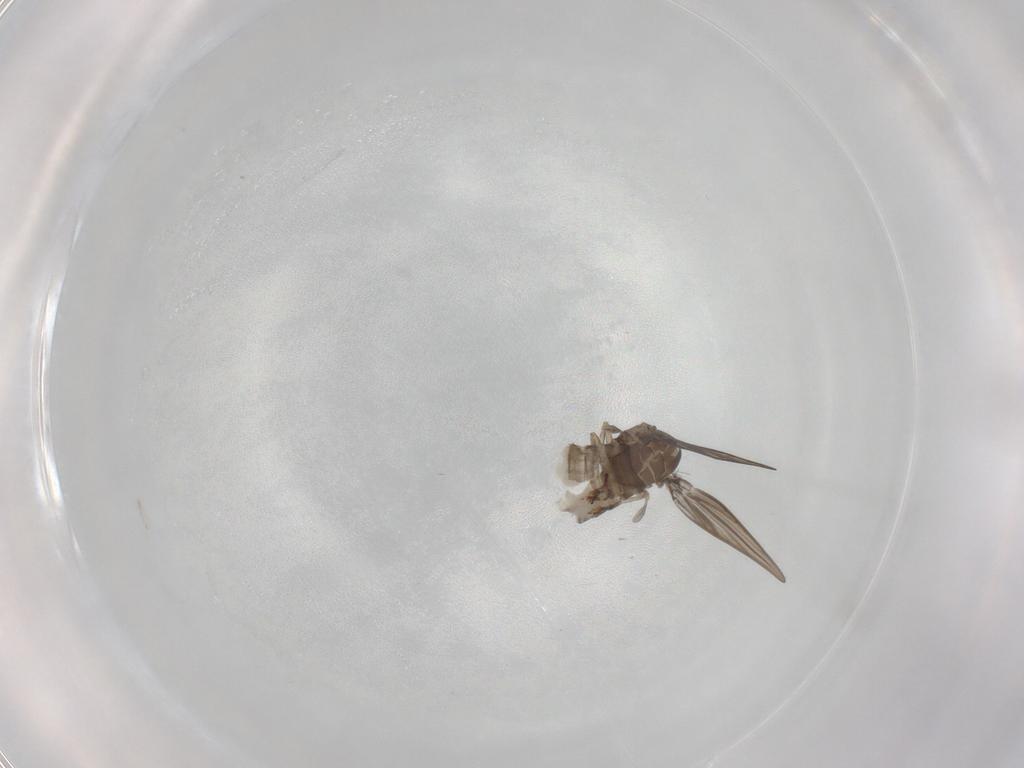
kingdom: Animalia
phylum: Arthropoda
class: Insecta
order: Diptera
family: Psychodidae
